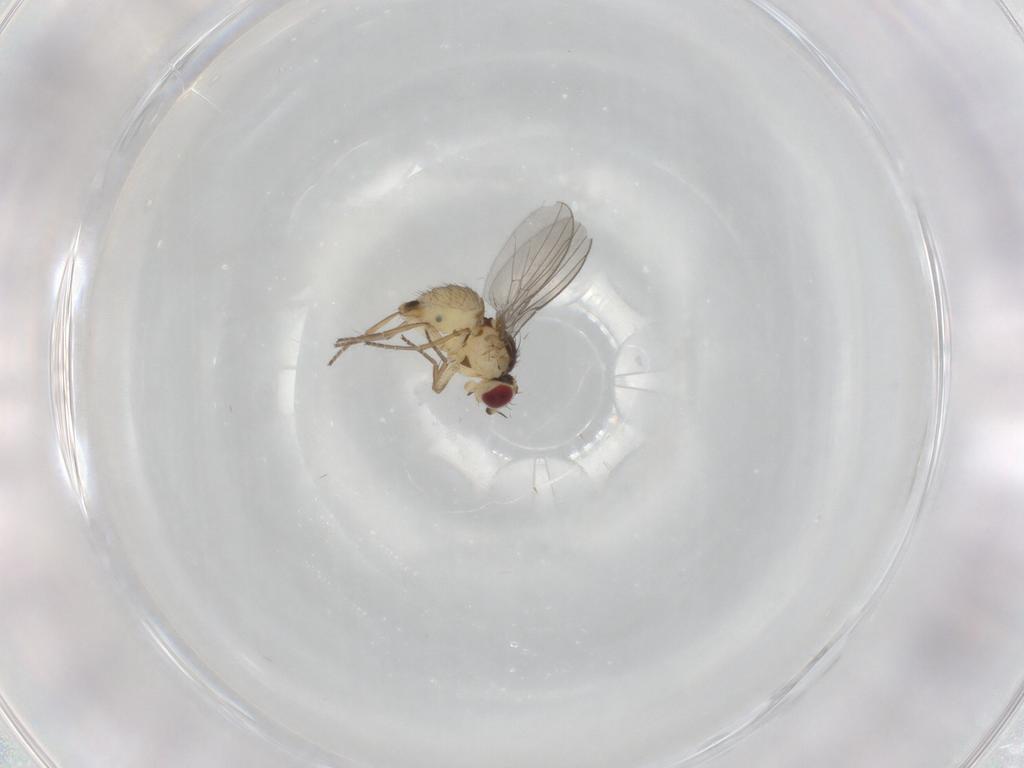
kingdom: Animalia
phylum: Arthropoda
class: Insecta
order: Diptera
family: Agromyzidae
